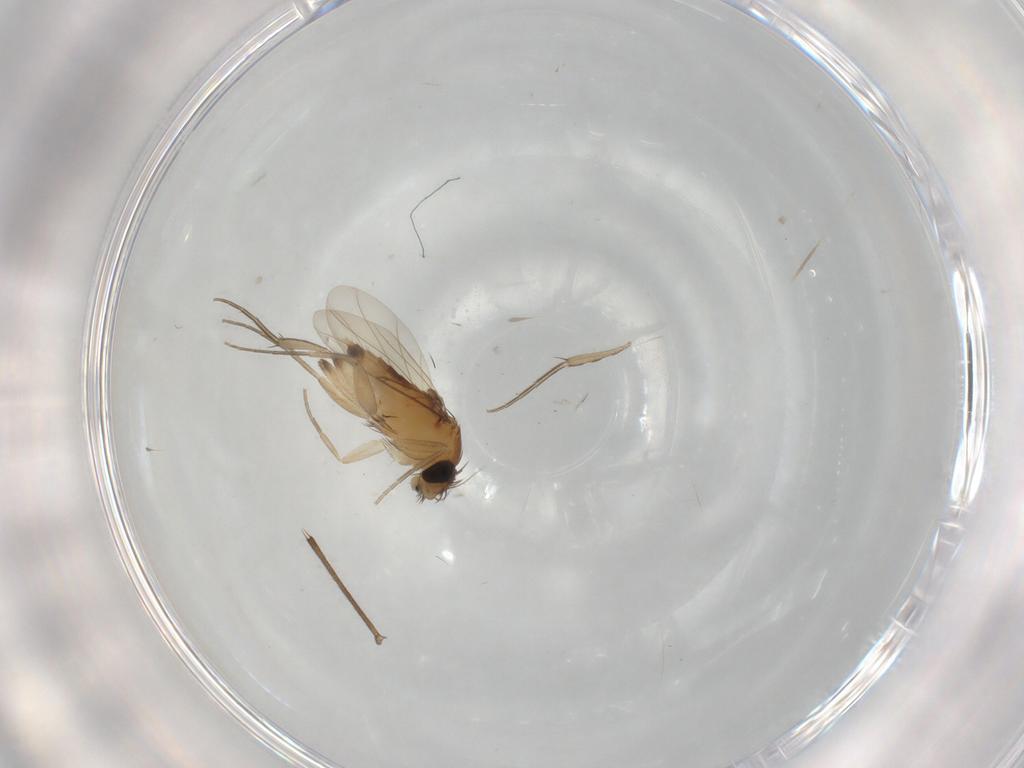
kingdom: Animalia
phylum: Arthropoda
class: Insecta
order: Diptera
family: Phoridae
